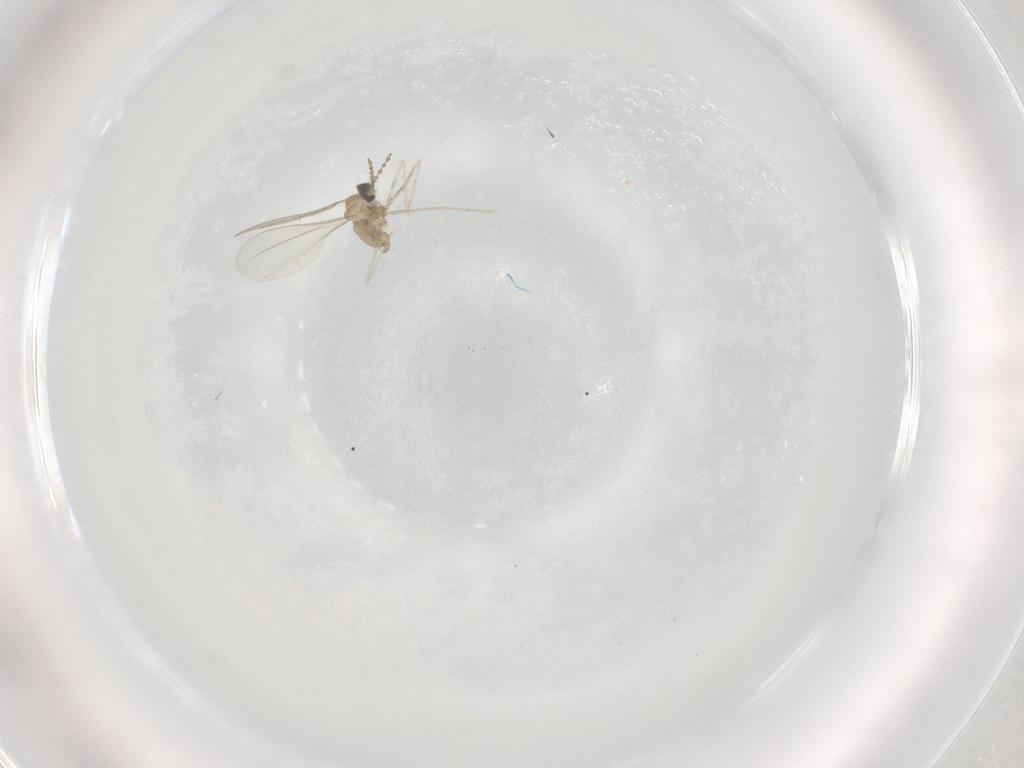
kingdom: Animalia
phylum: Arthropoda
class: Insecta
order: Diptera
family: Cecidomyiidae
